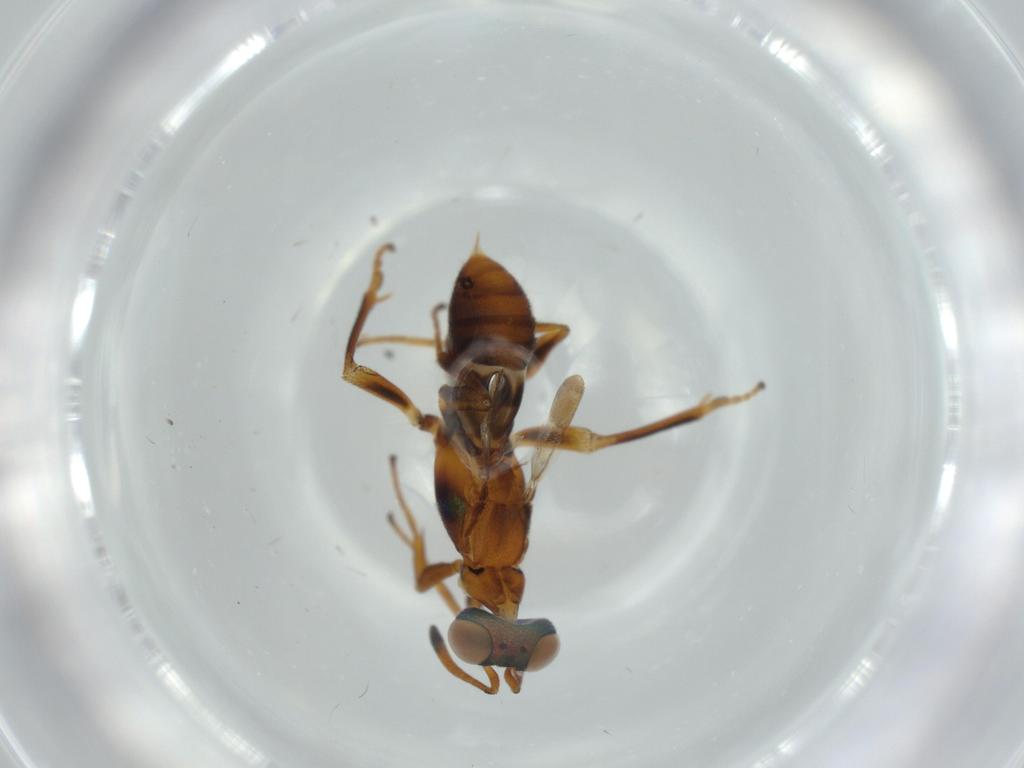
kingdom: Animalia
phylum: Arthropoda
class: Insecta
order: Hymenoptera
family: Eupelmidae
